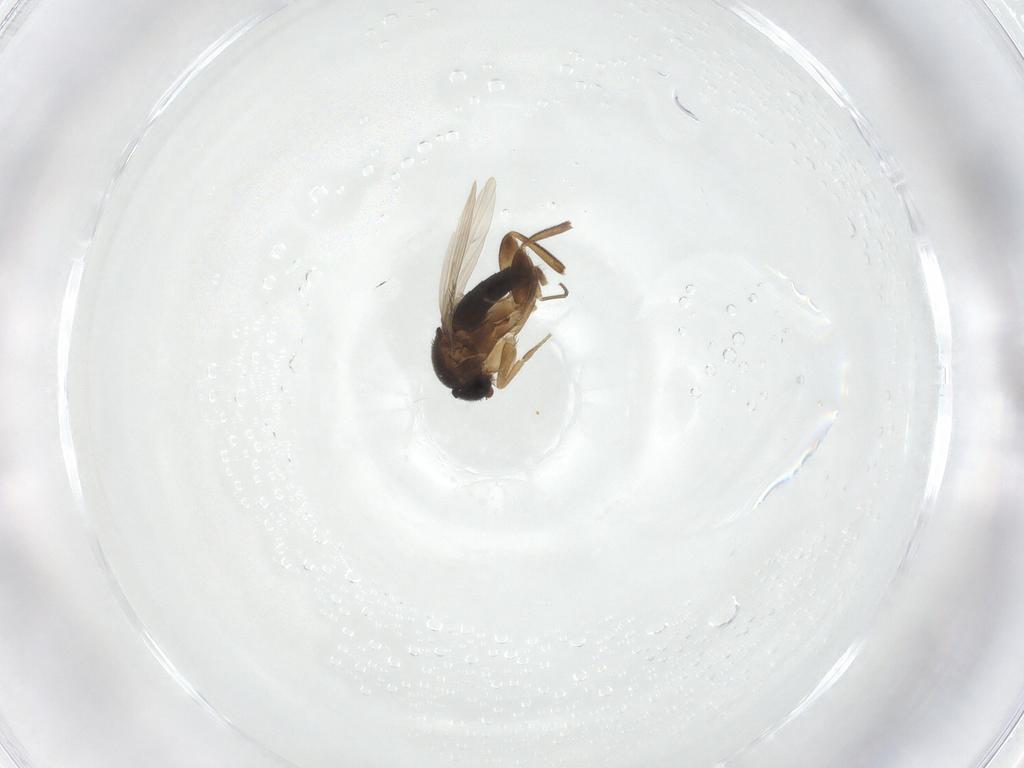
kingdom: Animalia
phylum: Arthropoda
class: Insecta
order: Diptera
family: Phoridae
